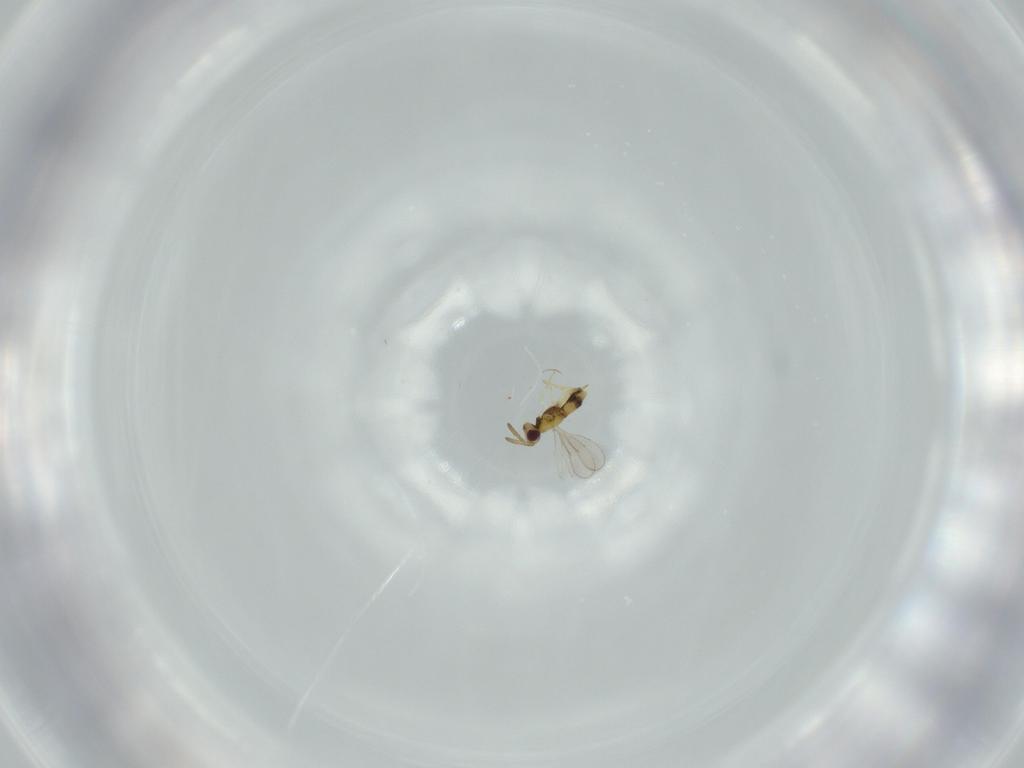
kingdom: Animalia
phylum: Arthropoda
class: Insecta
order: Hymenoptera
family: Aphelinidae
